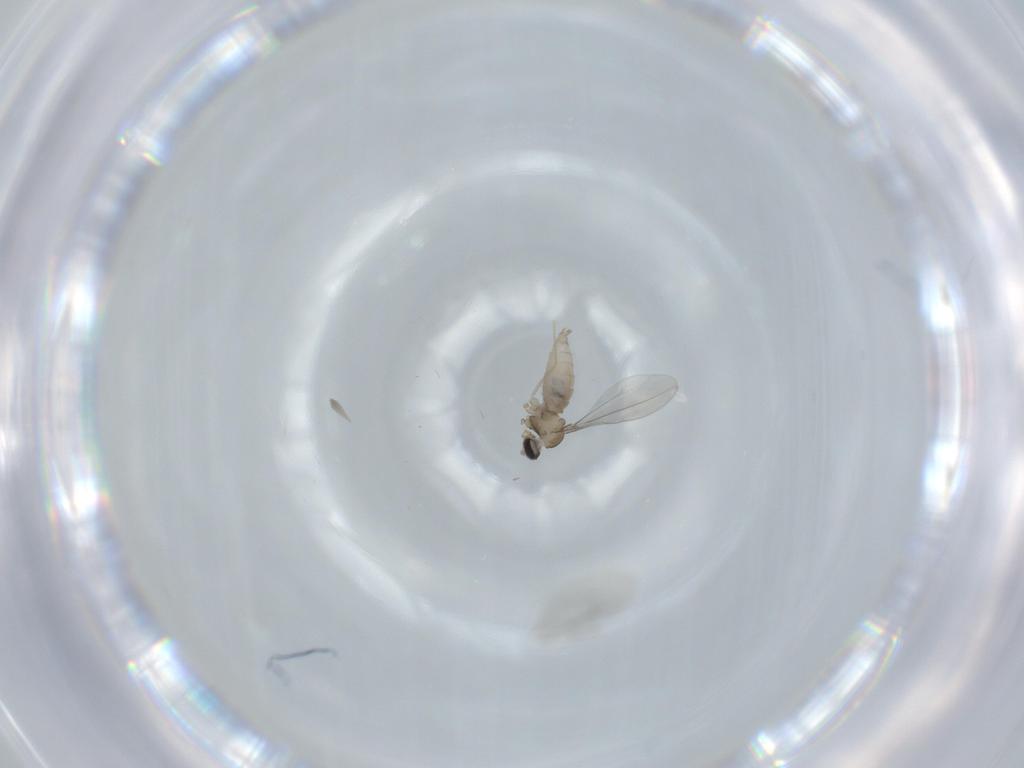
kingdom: Animalia
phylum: Arthropoda
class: Insecta
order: Diptera
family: Cecidomyiidae
